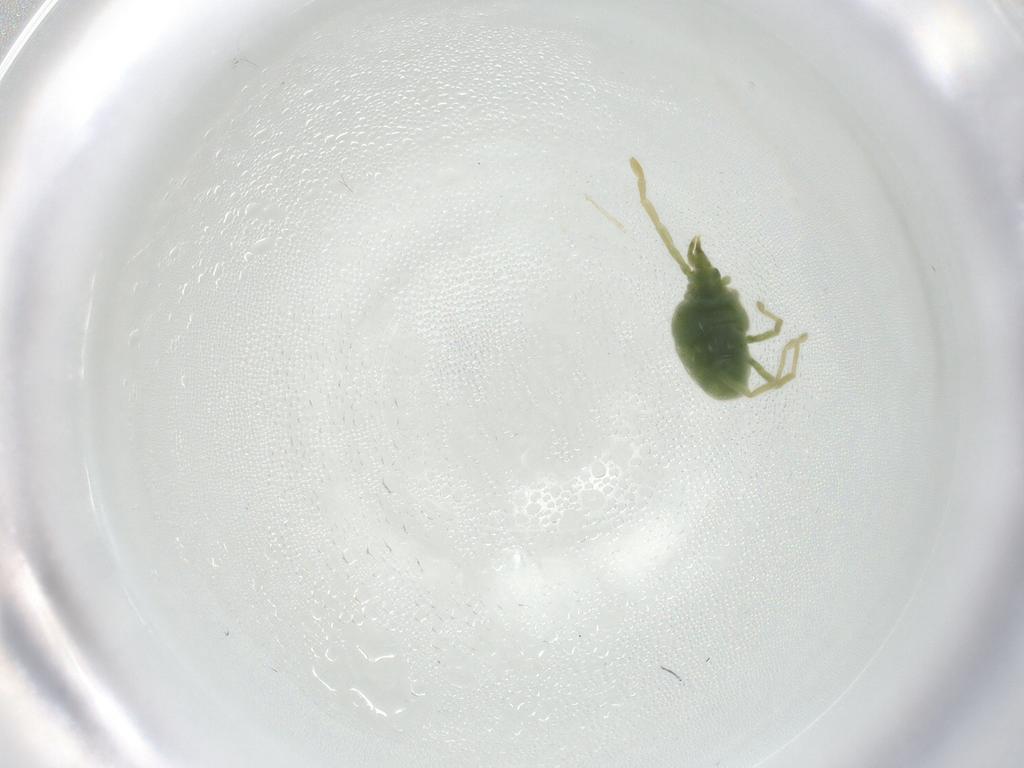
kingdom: Animalia
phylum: Arthropoda
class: Arachnida
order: Trombidiformes
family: Erythraeidae
